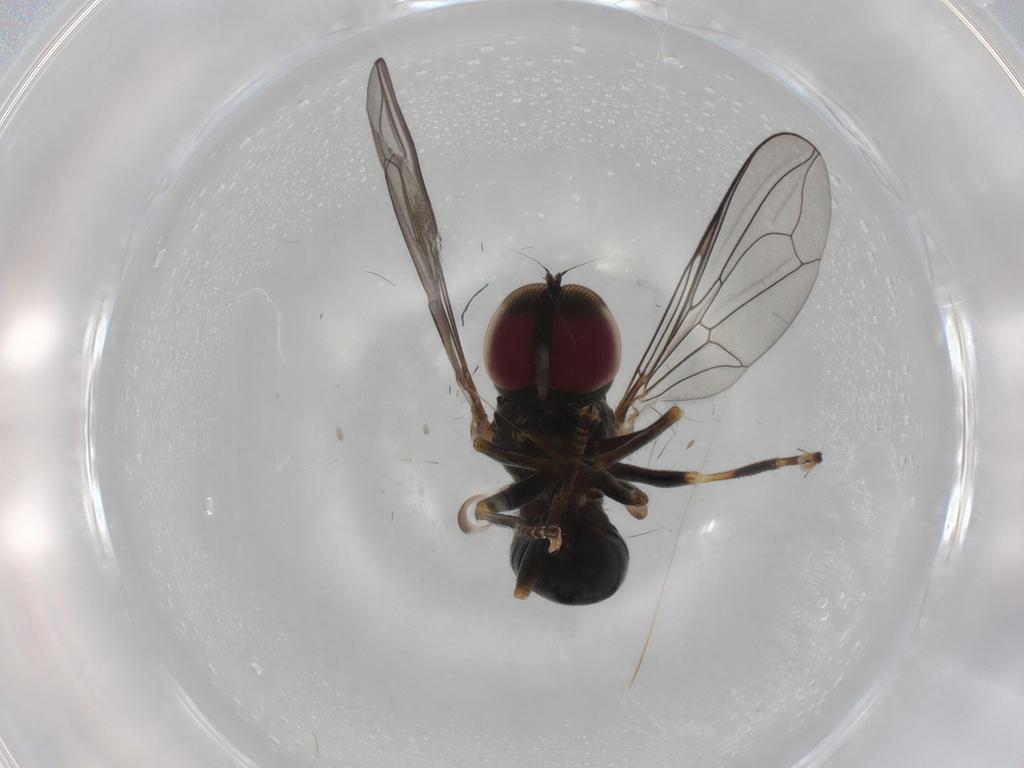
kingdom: Animalia
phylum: Arthropoda
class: Insecta
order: Diptera
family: Pipunculidae
